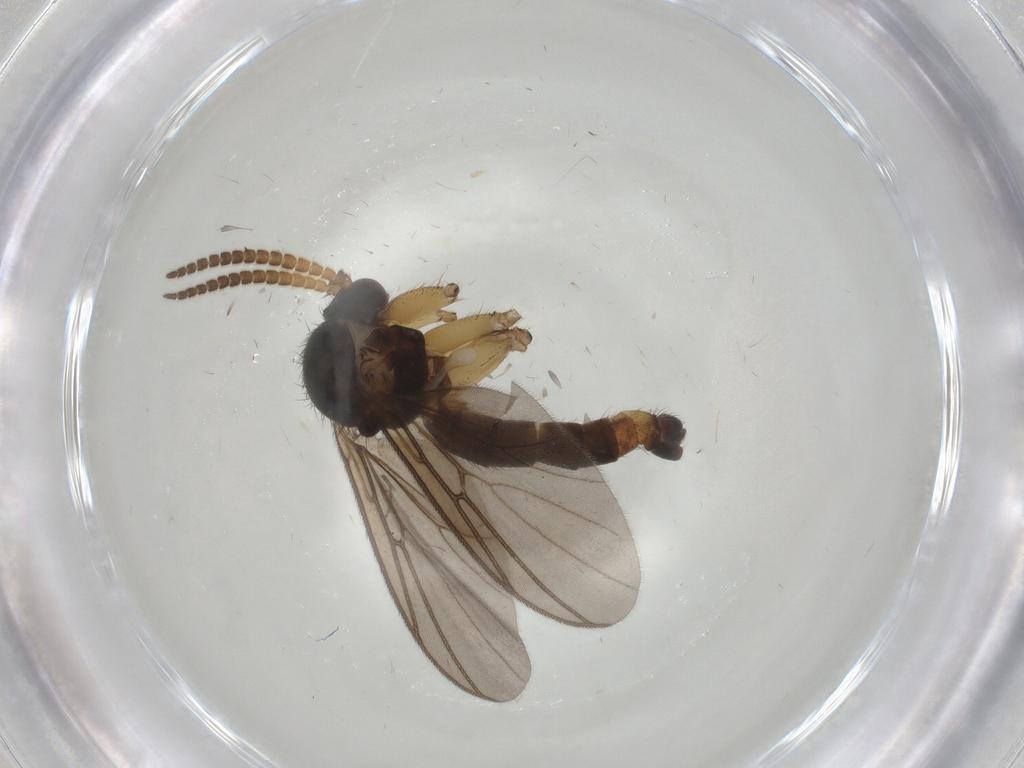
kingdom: Animalia
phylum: Arthropoda
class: Insecta
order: Diptera
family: Mycetophilidae
